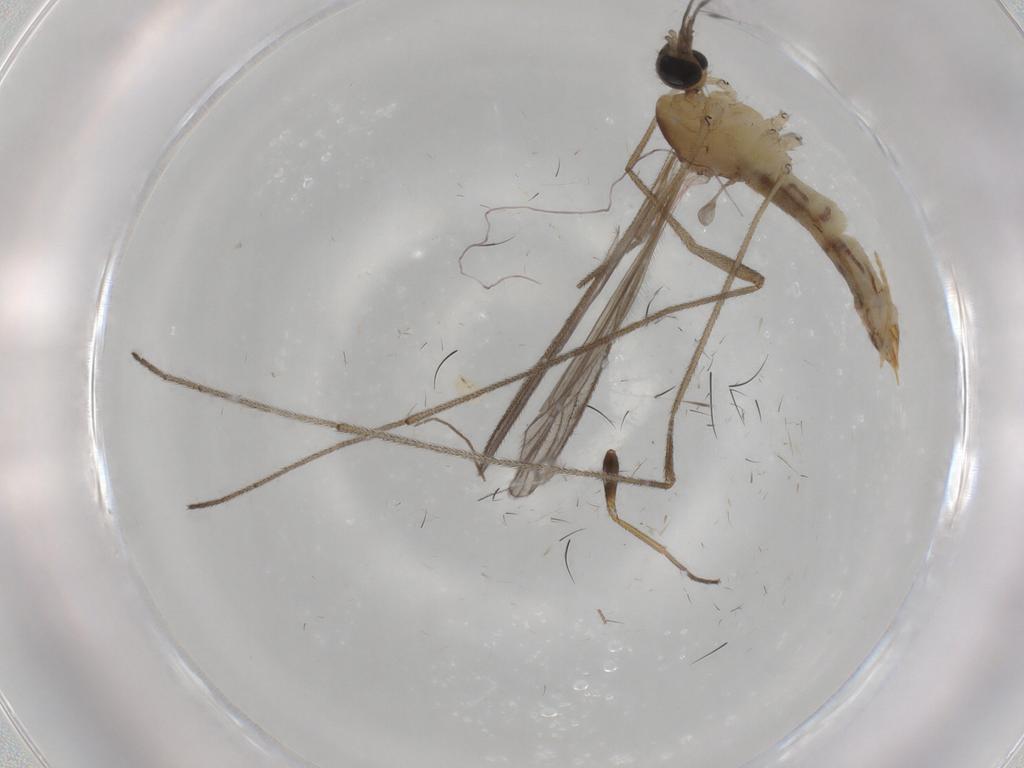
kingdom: Animalia
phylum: Arthropoda
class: Insecta
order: Diptera
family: Limoniidae
